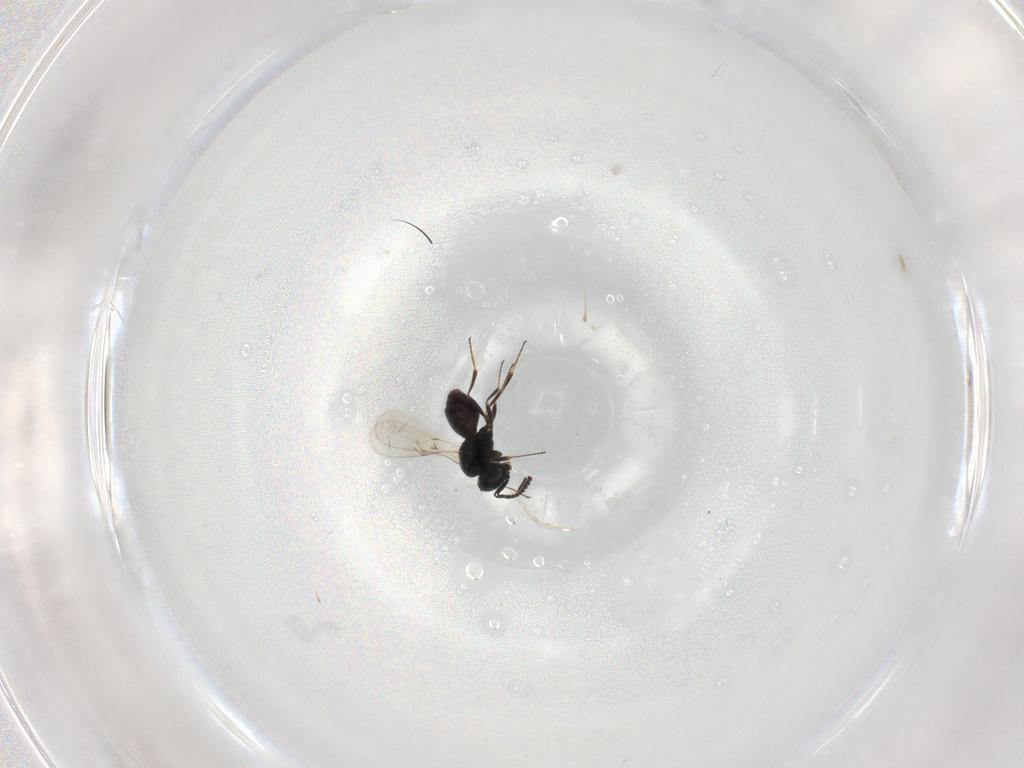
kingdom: Animalia
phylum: Arthropoda
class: Insecta
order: Hymenoptera
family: Scelionidae
